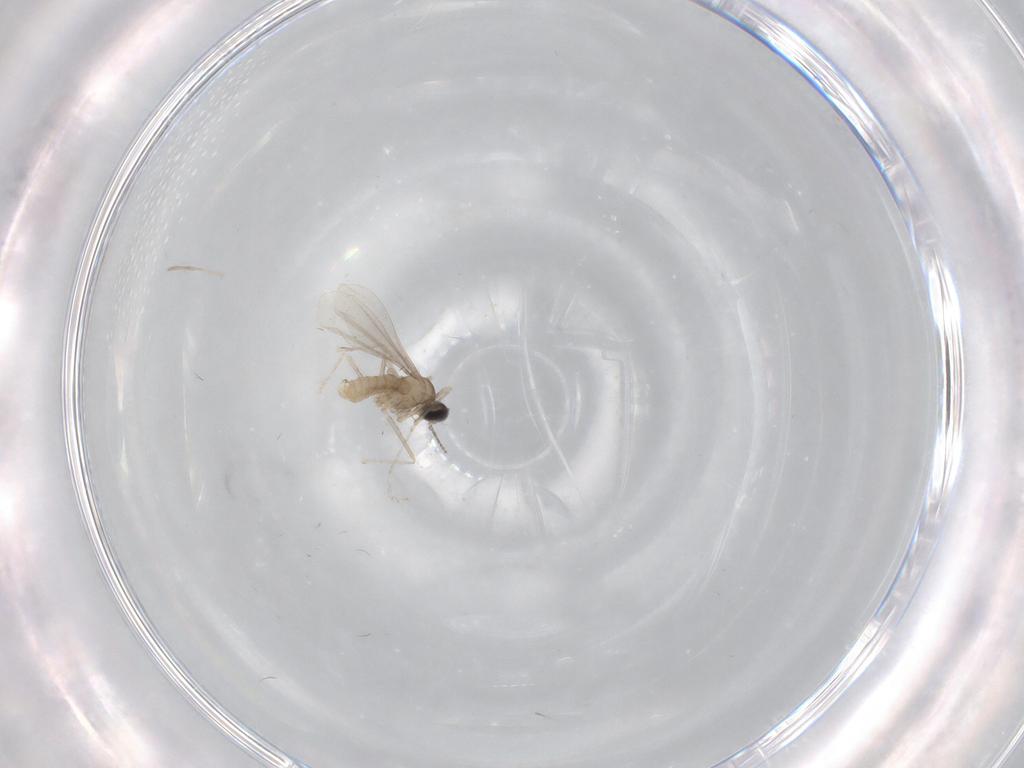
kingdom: Animalia
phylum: Arthropoda
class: Insecta
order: Diptera
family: Cecidomyiidae
